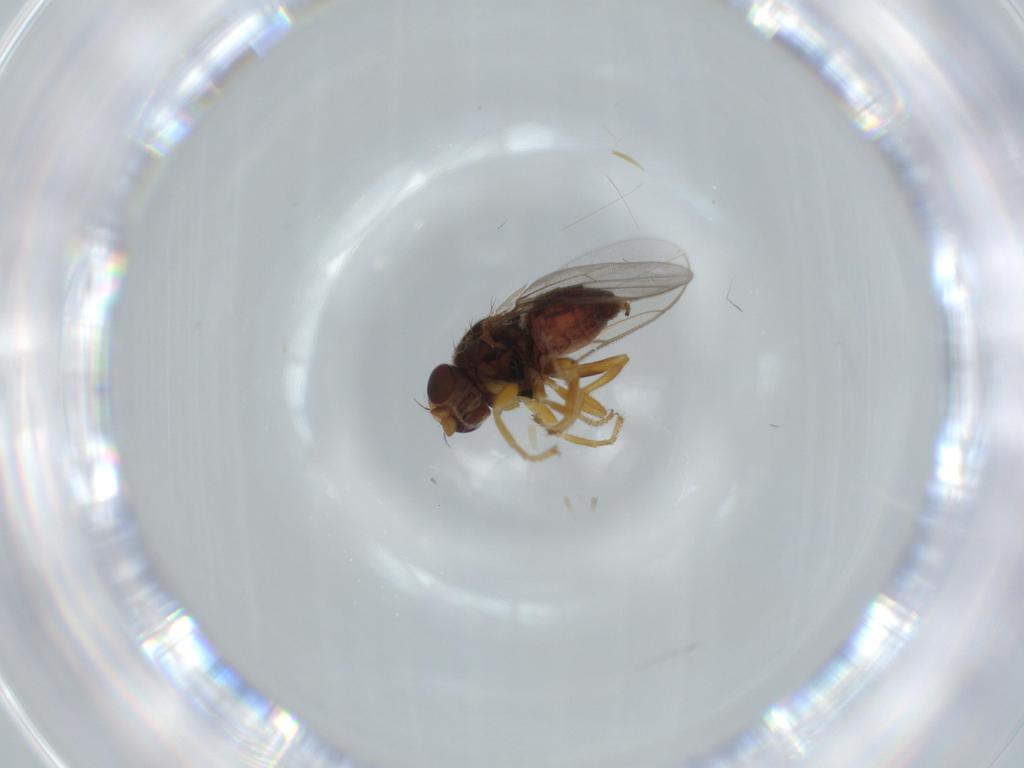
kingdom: Animalia
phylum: Arthropoda
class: Insecta
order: Diptera
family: Chloropidae
